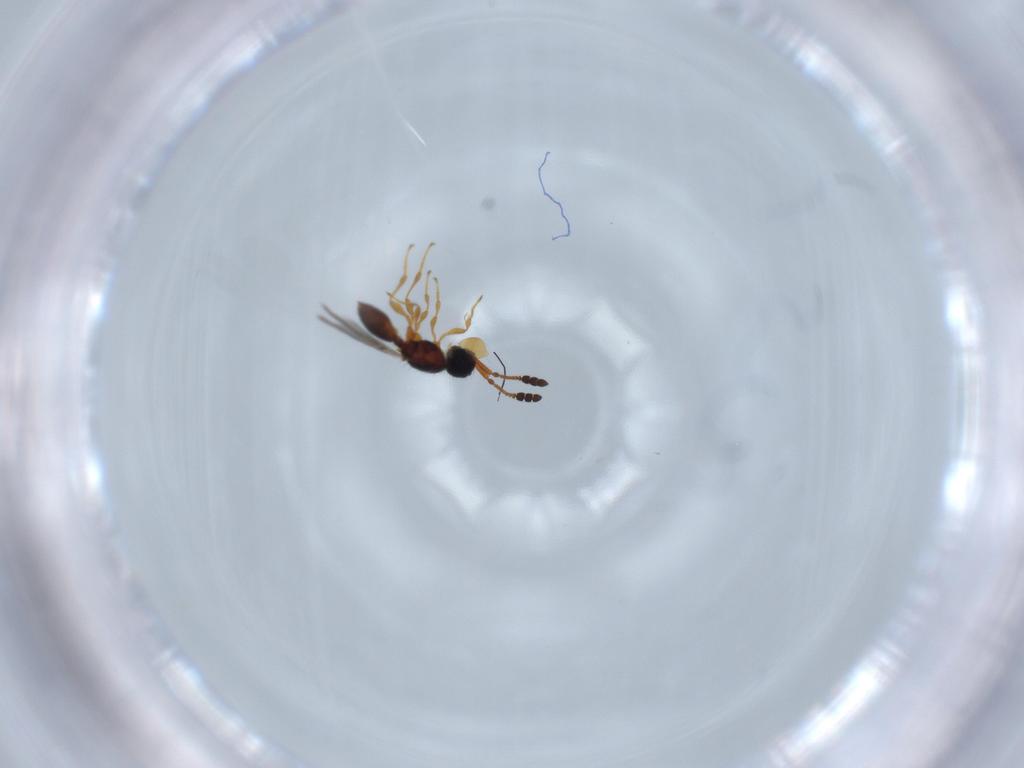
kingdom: Animalia
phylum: Arthropoda
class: Insecta
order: Hymenoptera
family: Diapriidae
